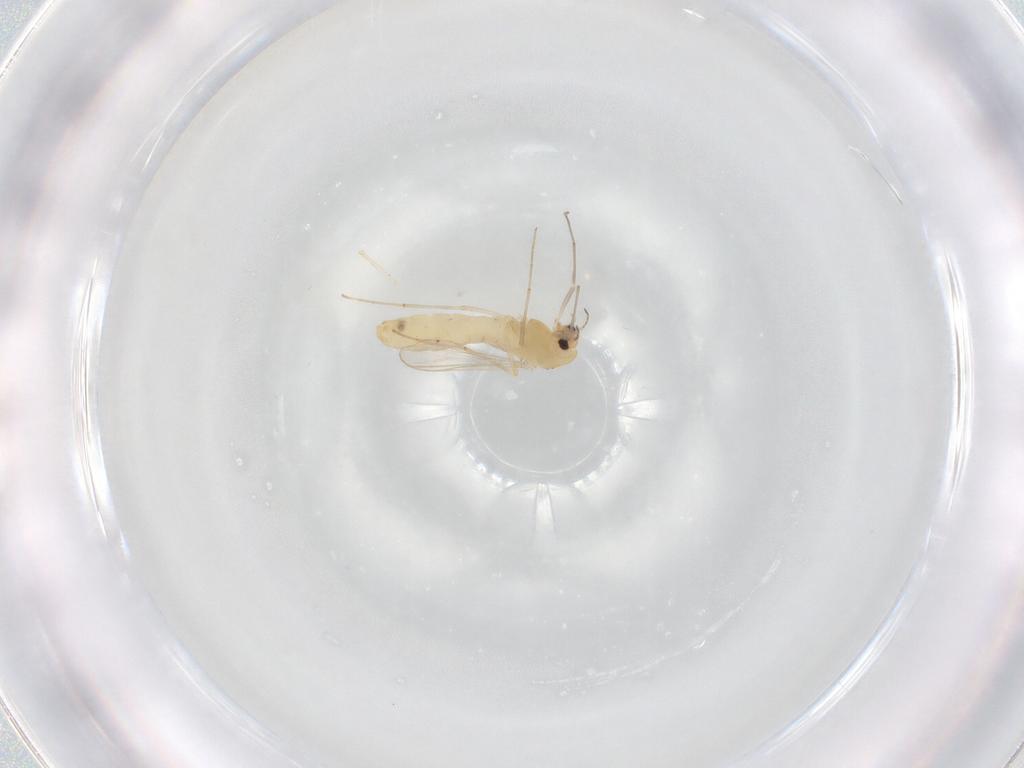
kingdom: Animalia
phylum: Arthropoda
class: Insecta
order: Diptera
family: Chironomidae
